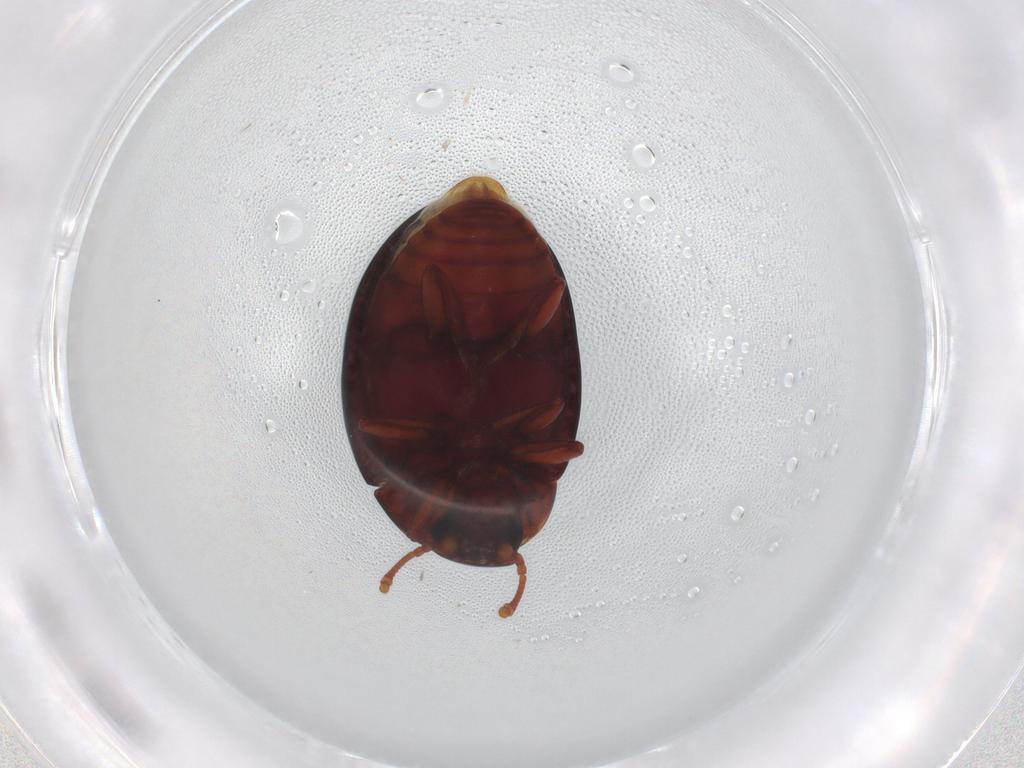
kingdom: Animalia
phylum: Arthropoda
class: Insecta
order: Coleoptera
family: Zopheridae
